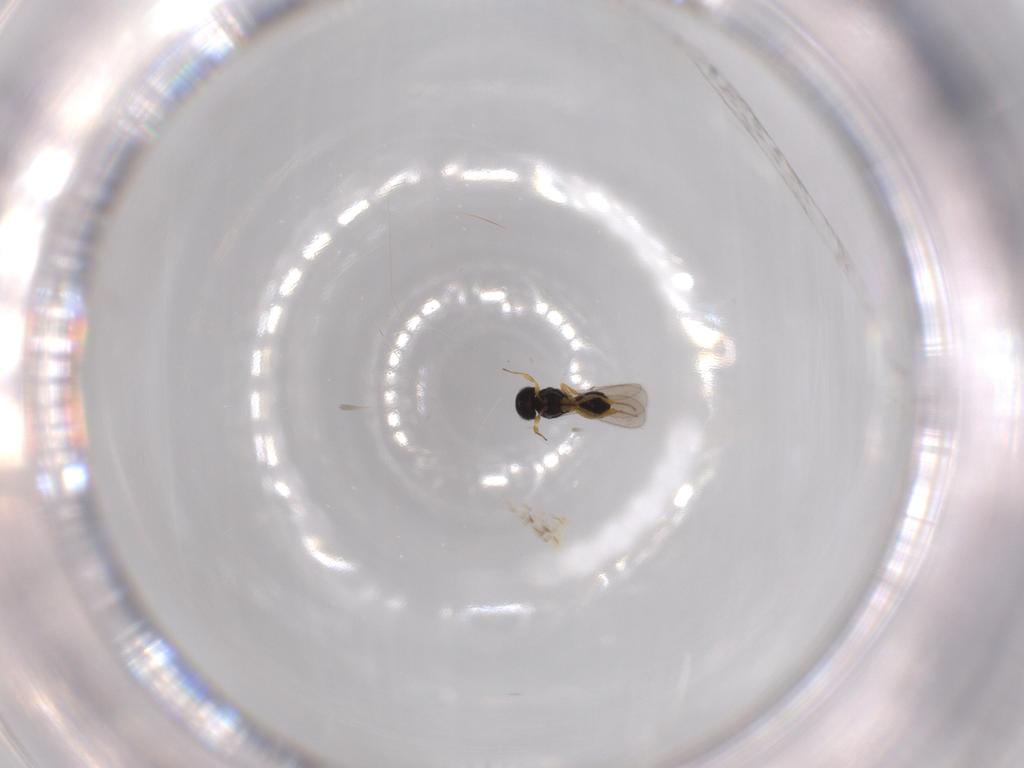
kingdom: Animalia
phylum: Arthropoda
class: Insecta
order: Hymenoptera
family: Scelionidae
